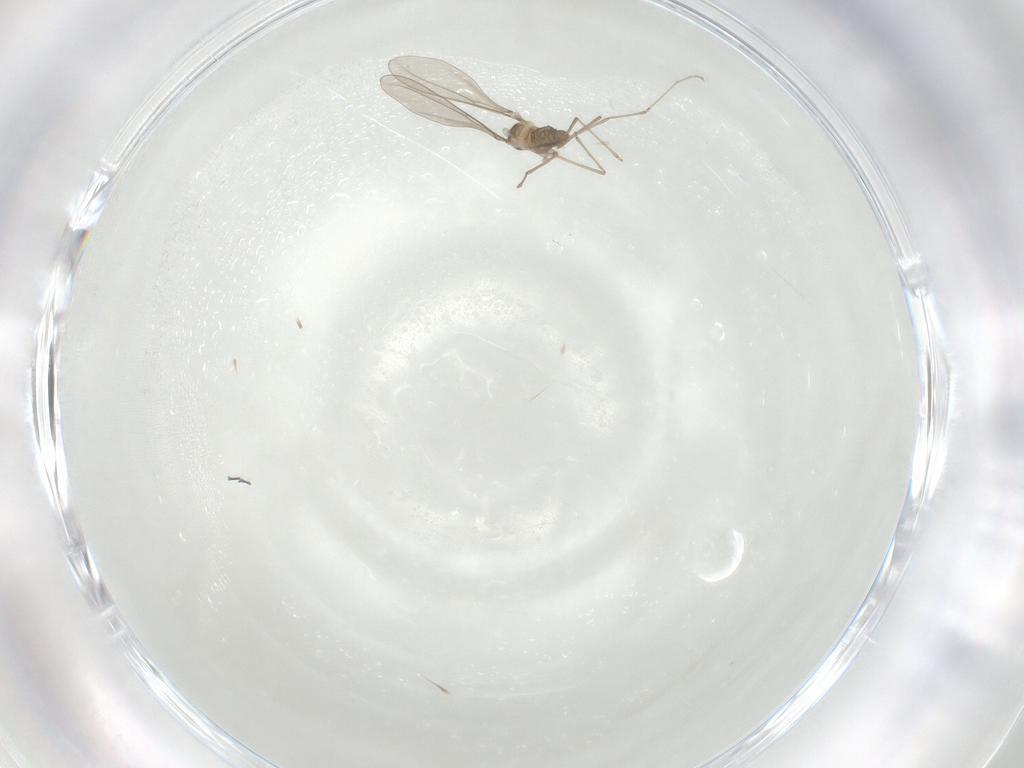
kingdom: Animalia
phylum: Arthropoda
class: Insecta
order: Diptera
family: Cecidomyiidae
